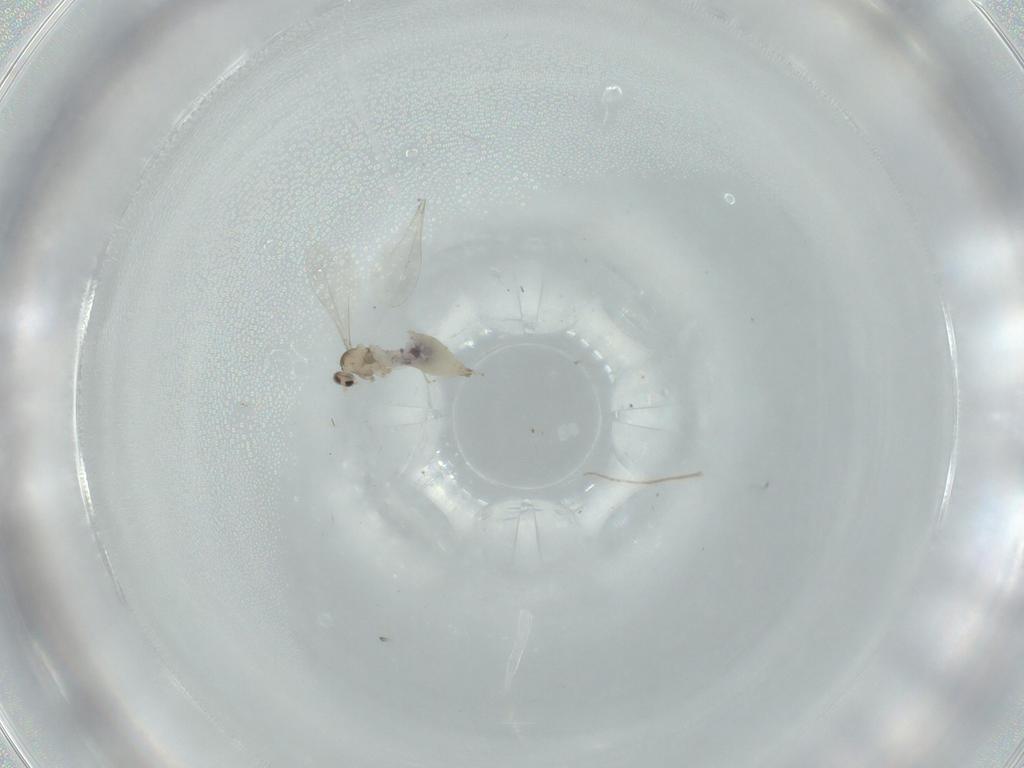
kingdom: Animalia
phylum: Arthropoda
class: Insecta
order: Diptera
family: Cecidomyiidae
